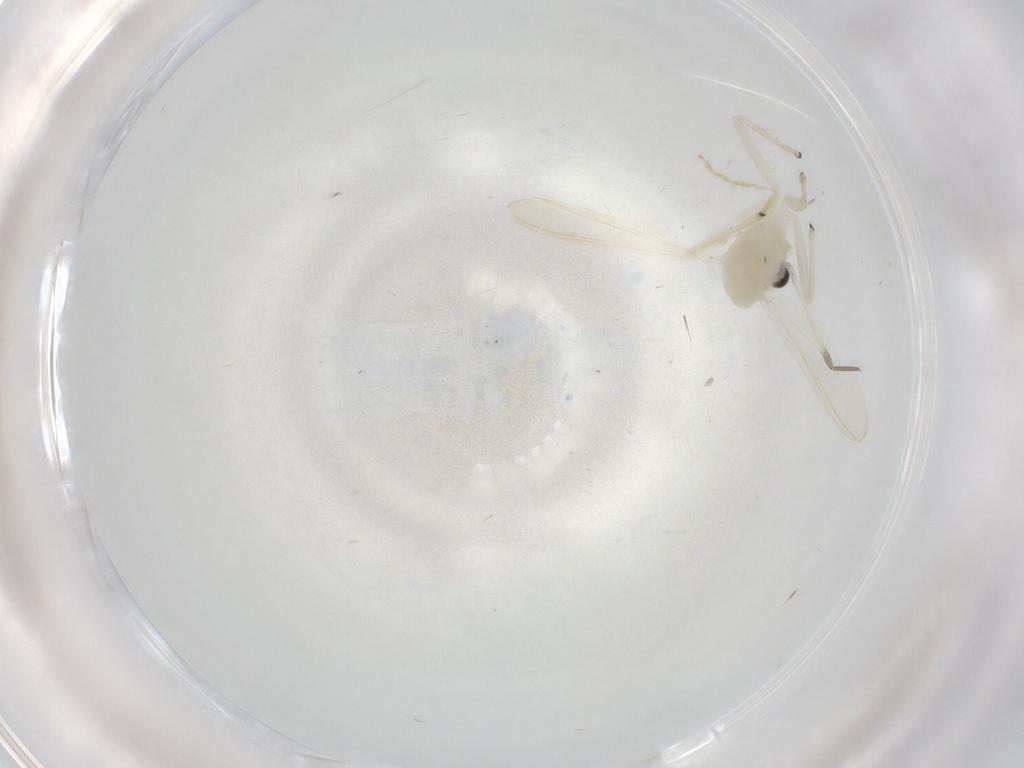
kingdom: Animalia
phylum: Arthropoda
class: Insecta
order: Diptera
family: Chironomidae
